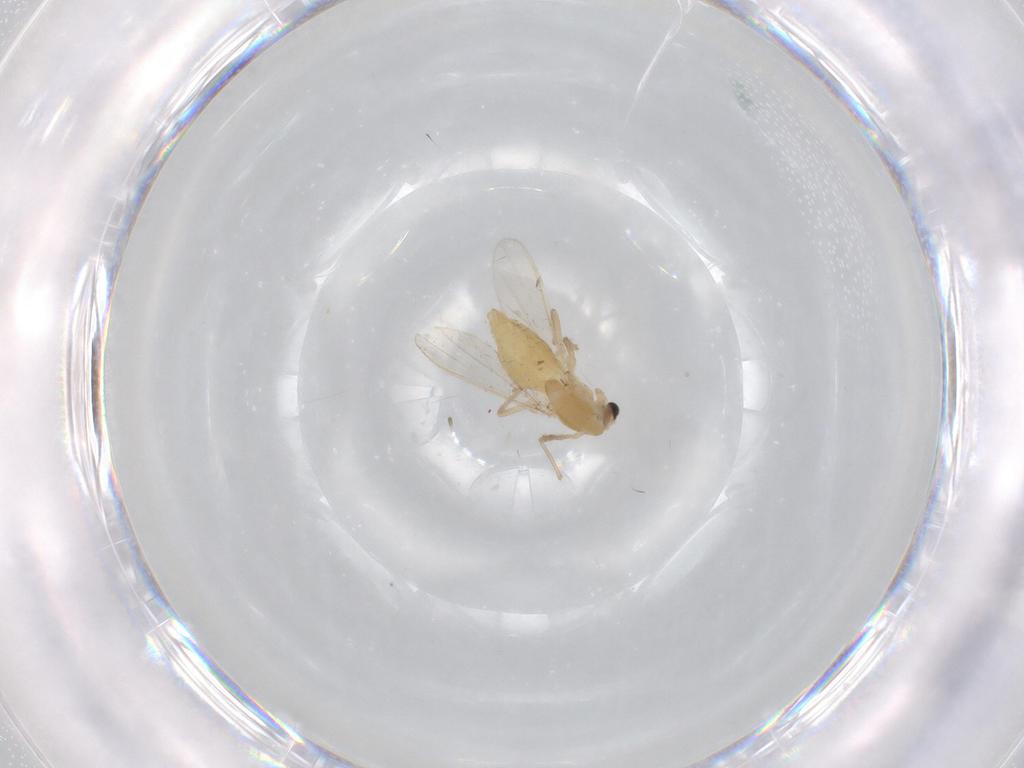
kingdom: Animalia
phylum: Arthropoda
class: Insecta
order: Diptera
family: Sciaridae
